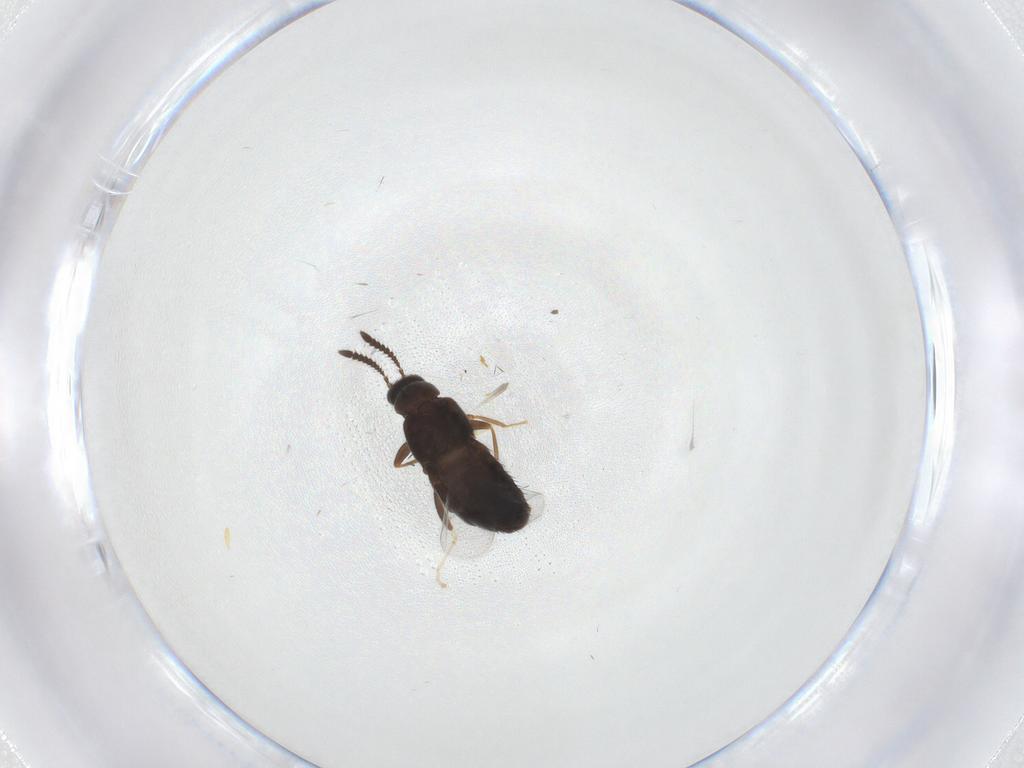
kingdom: Animalia
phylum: Arthropoda
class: Insecta
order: Coleoptera
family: Staphylinidae
